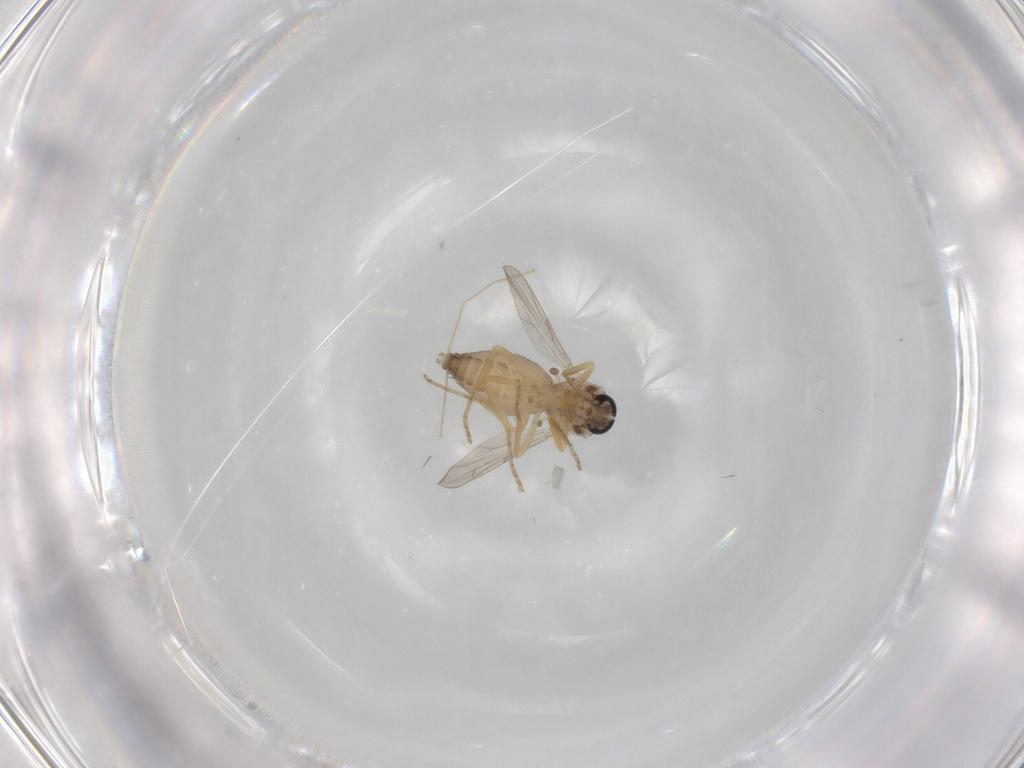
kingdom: Animalia
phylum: Arthropoda
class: Insecta
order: Diptera
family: Ceratopogonidae
